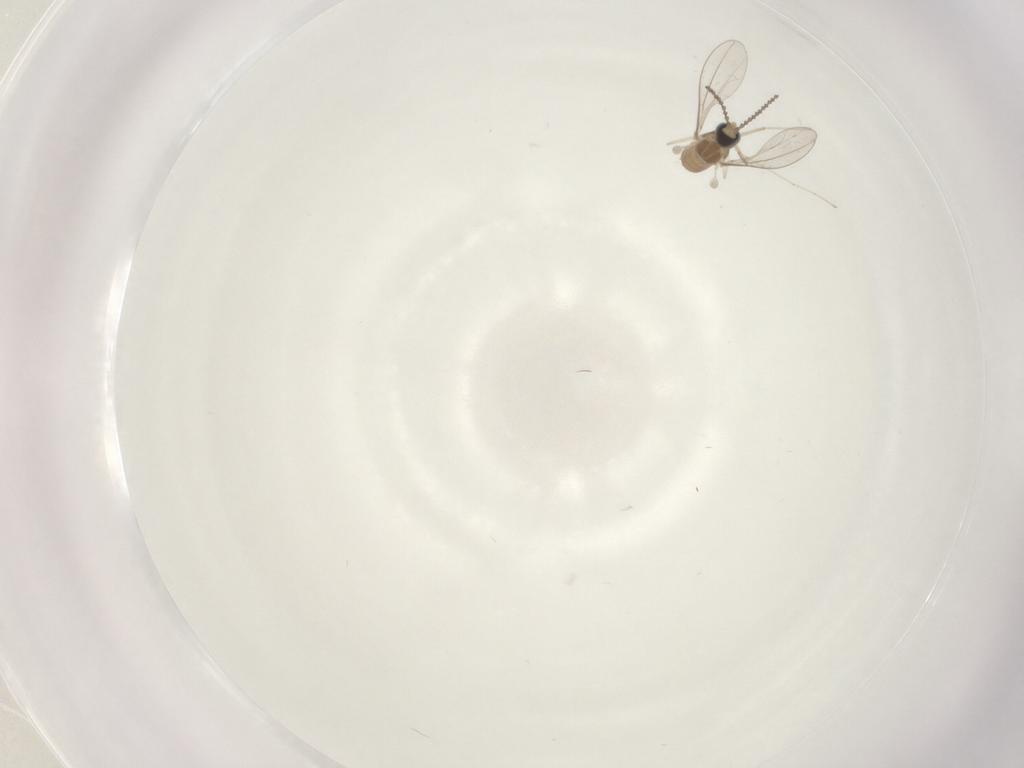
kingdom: Animalia
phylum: Arthropoda
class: Insecta
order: Diptera
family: Cecidomyiidae
